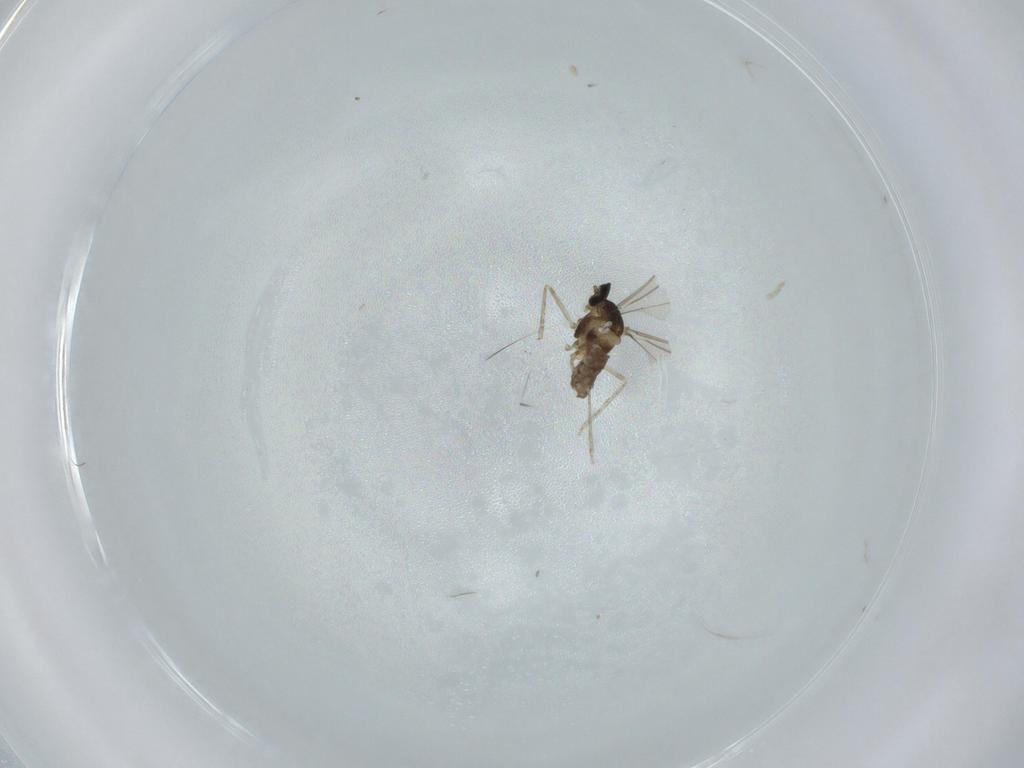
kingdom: Animalia
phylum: Arthropoda
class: Insecta
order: Diptera
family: Cecidomyiidae
